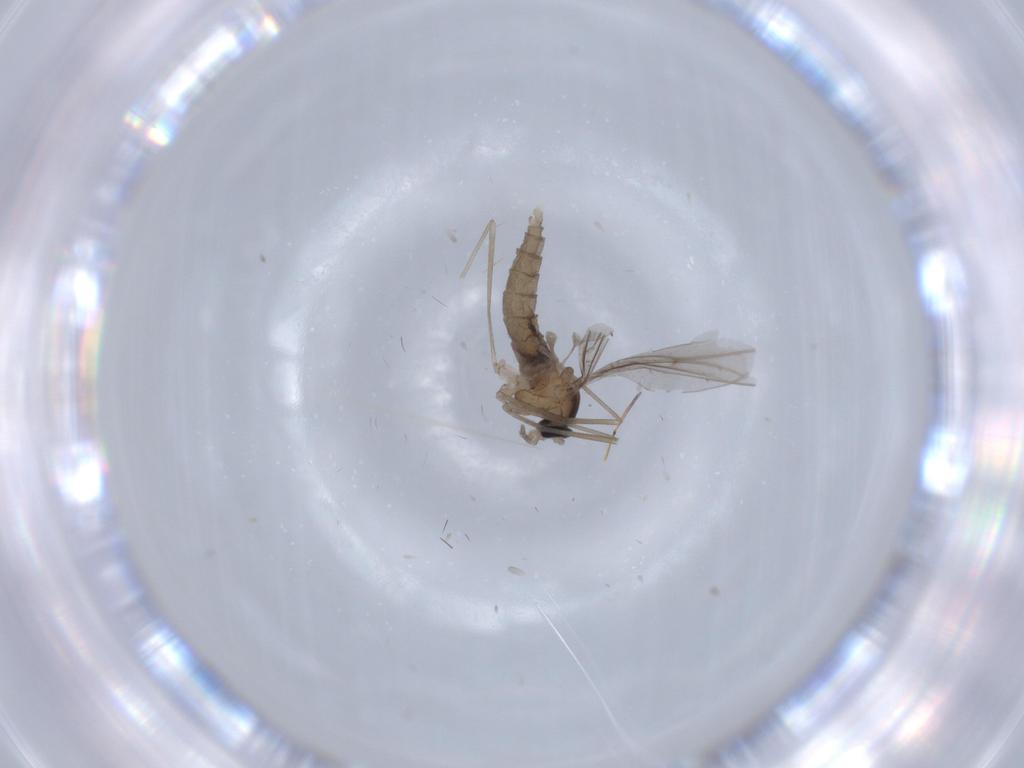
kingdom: Animalia
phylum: Arthropoda
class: Insecta
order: Diptera
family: Cecidomyiidae
